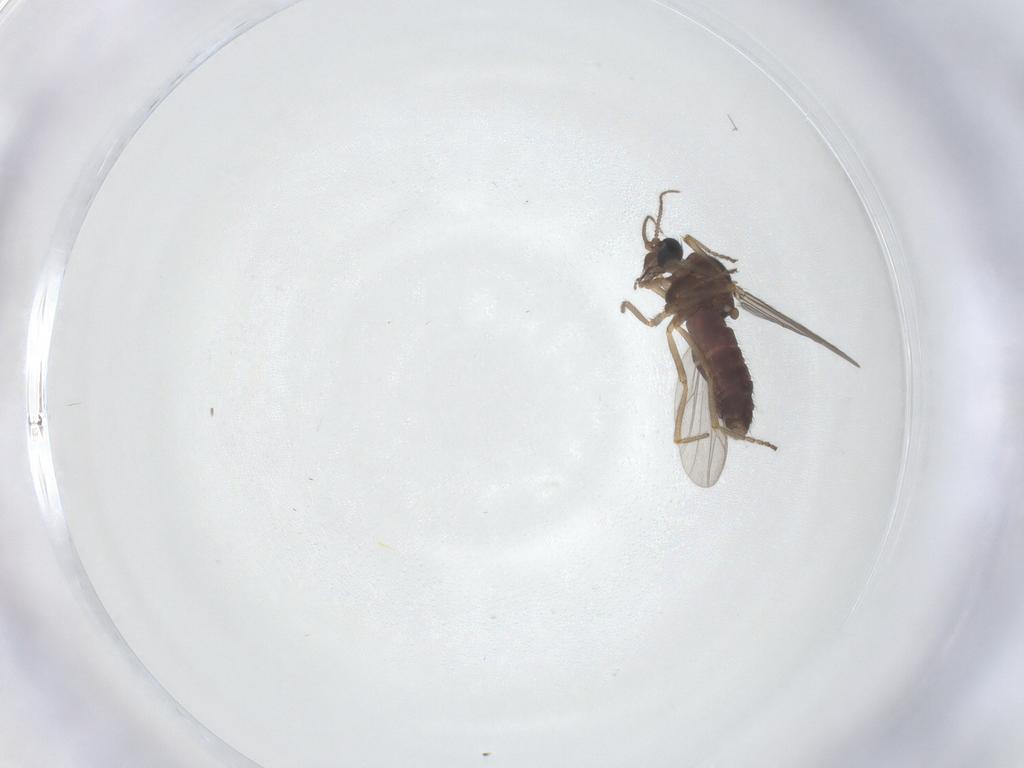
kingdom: Animalia
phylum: Arthropoda
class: Insecta
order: Diptera
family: Ceratopogonidae
